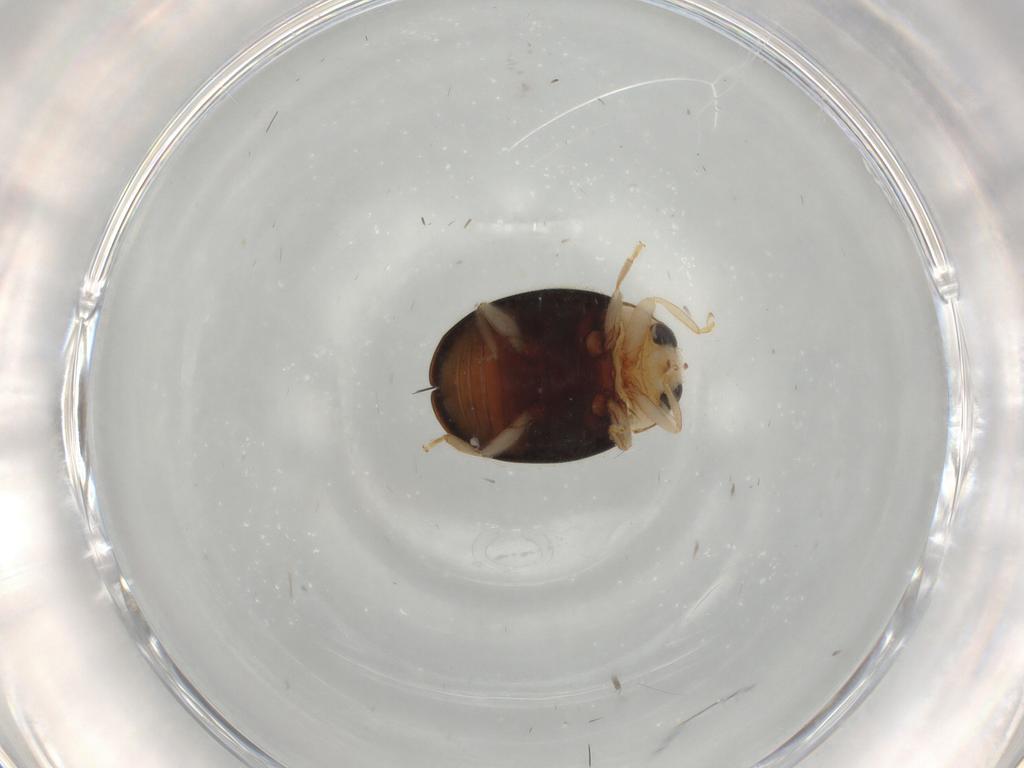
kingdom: Animalia
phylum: Arthropoda
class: Insecta
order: Coleoptera
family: Coccinellidae
